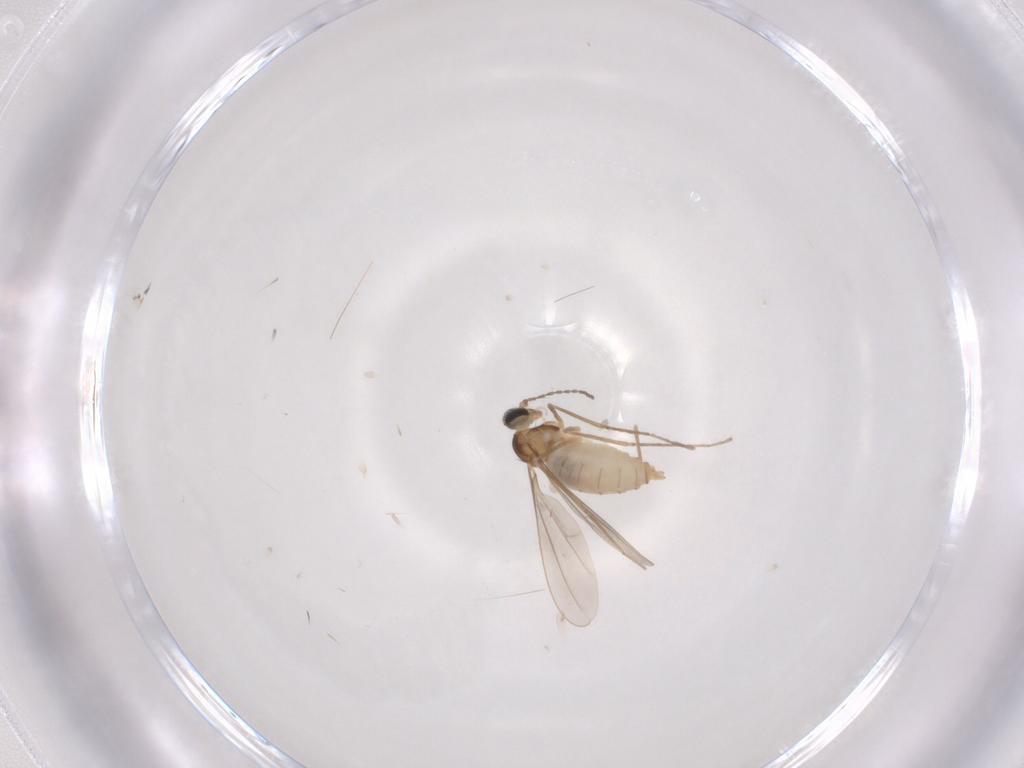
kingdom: Animalia
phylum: Arthropoda
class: Insecta
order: Diptera
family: Cecidomyiidae
